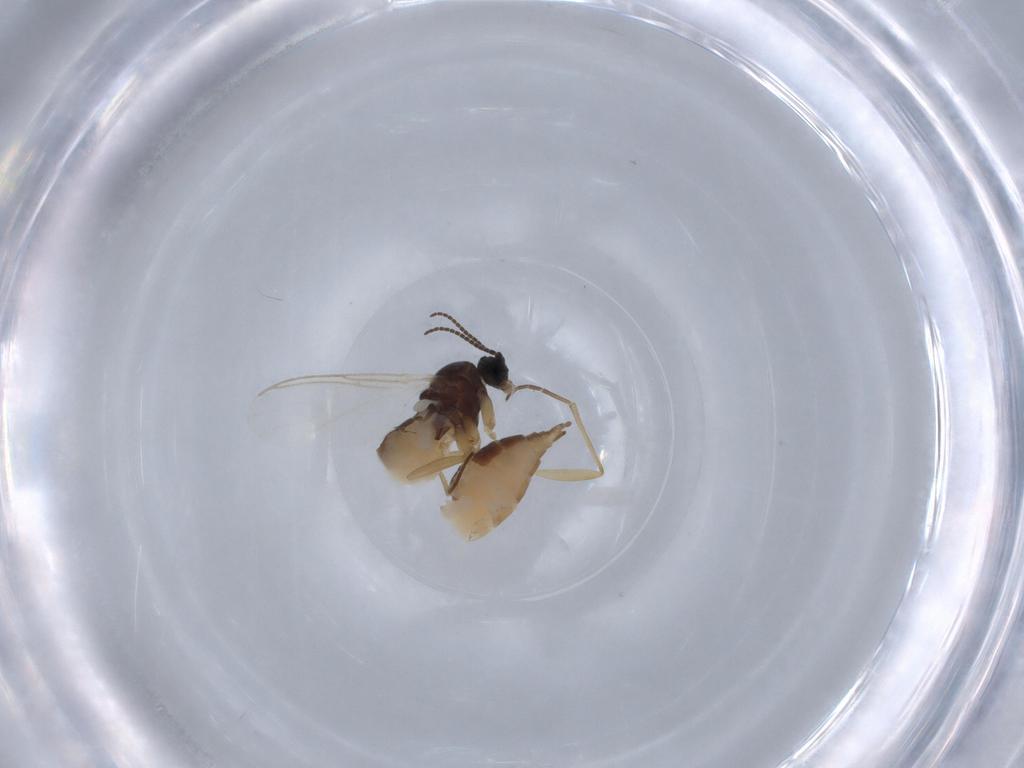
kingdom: Animalia
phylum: Arthropoda
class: Insecta
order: Diptera
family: Sciaridae
